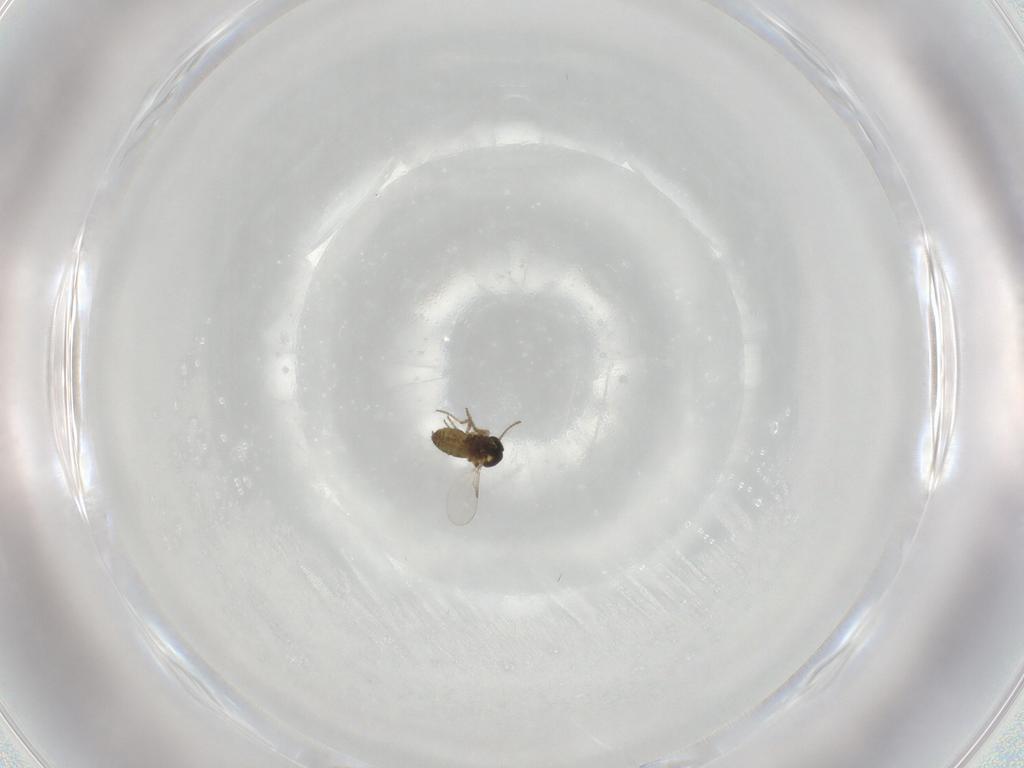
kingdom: Animalia
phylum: Arthropoda
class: Insecta
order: Diptera
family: Ceratopogonidae
